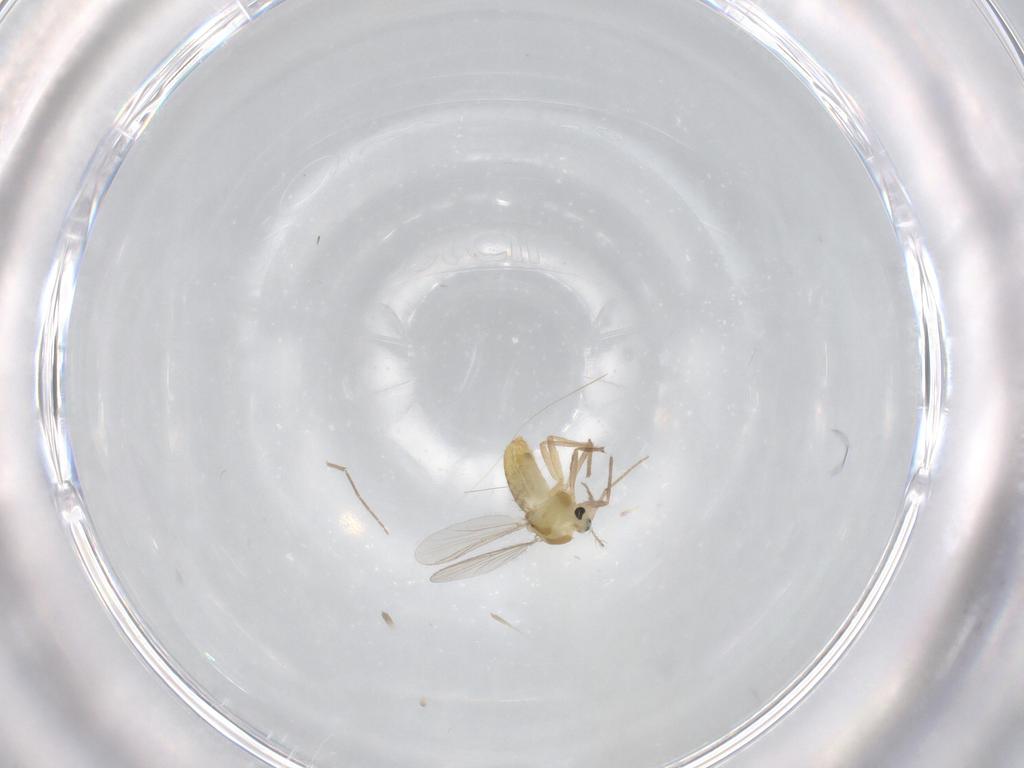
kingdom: Animalia
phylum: Arthropoda
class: Insecta
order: Diptera
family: Chironomidae
